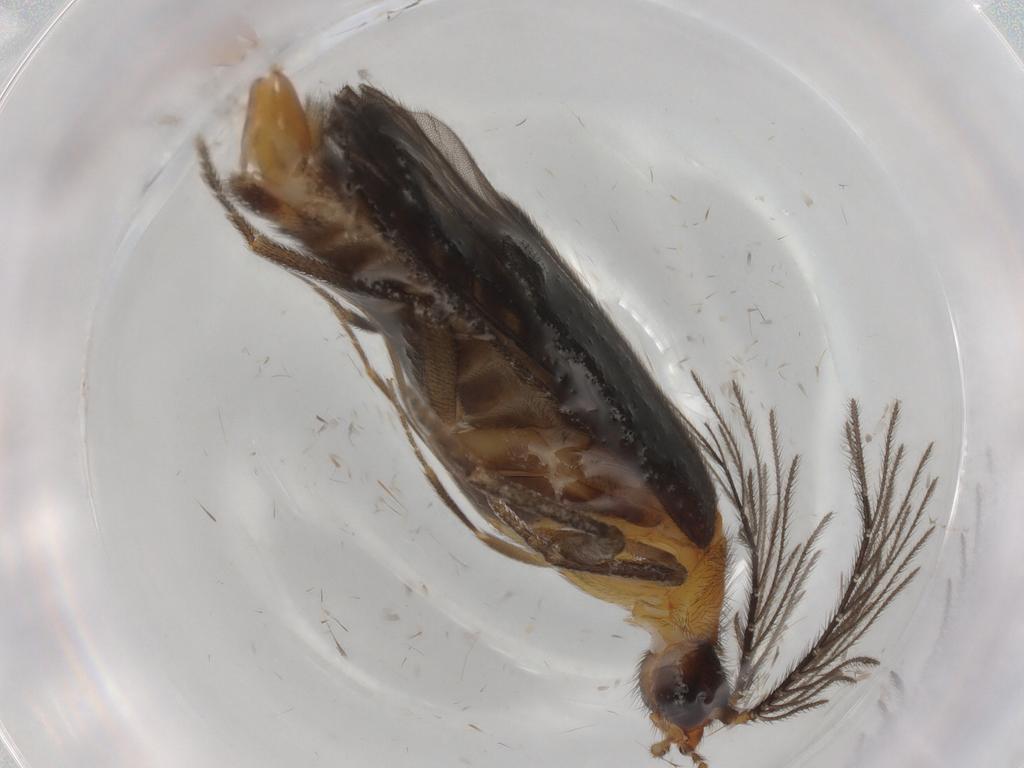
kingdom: Animalia
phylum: Arthropoda
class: Insecta
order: Coleoptera
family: Phengodidae
